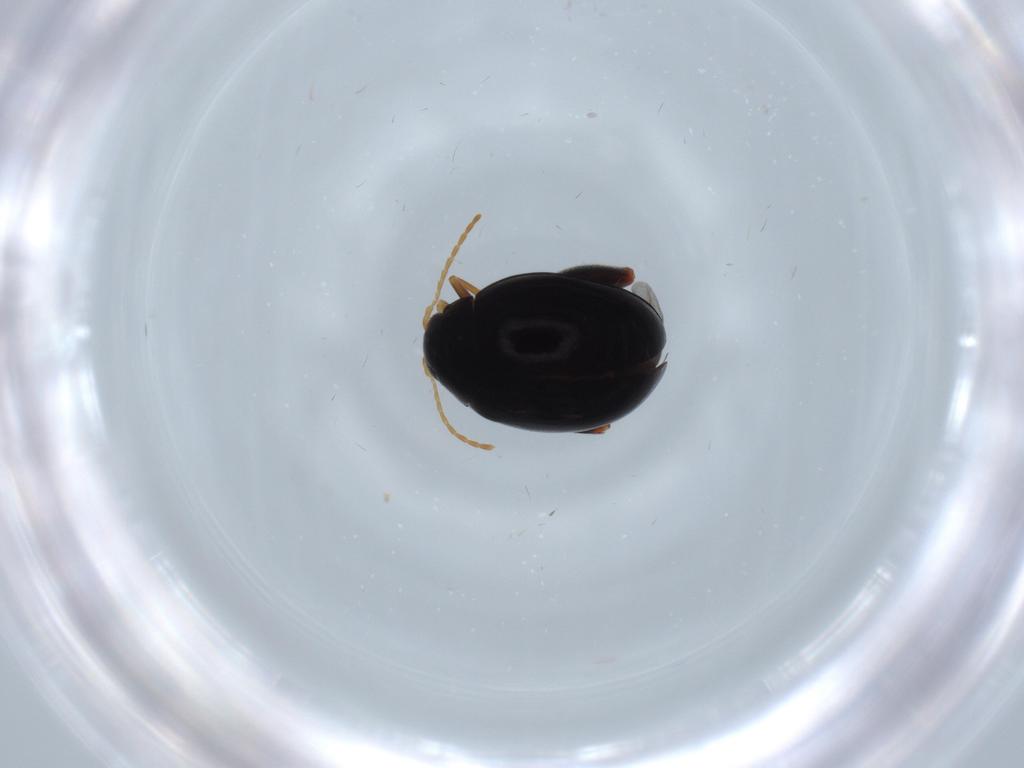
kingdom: Animalia
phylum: Arthropoda
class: Insecta
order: Coleoptera
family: Chrysomelidae
